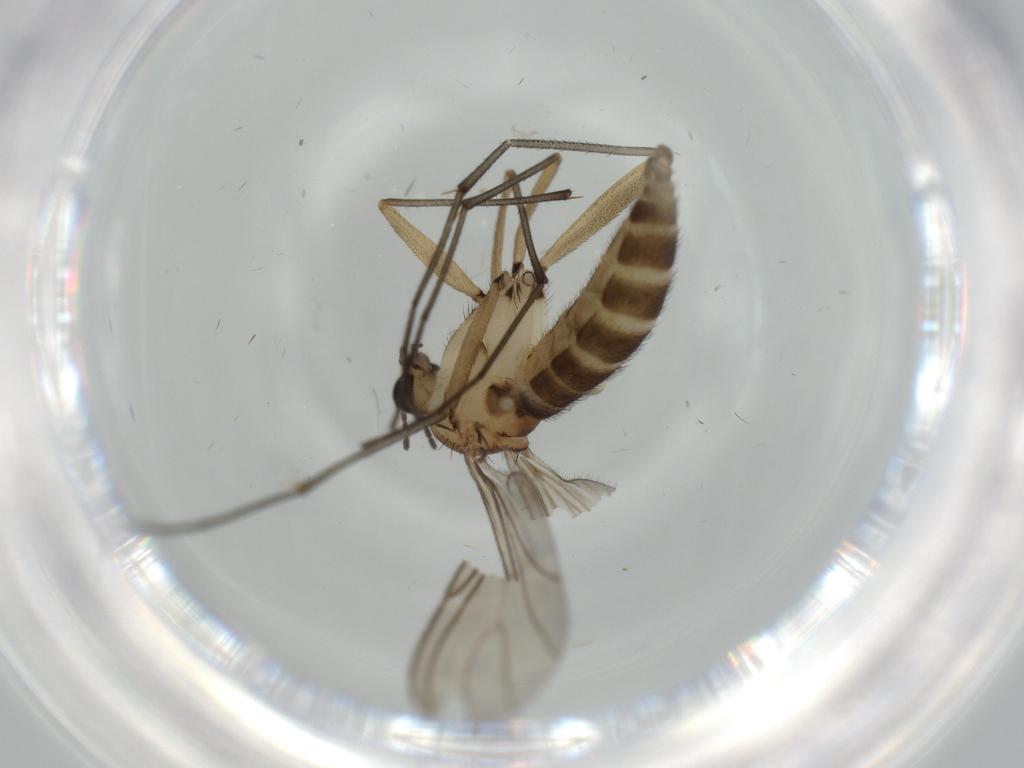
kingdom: Animalia
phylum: Arthropoda
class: Insecta
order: Diptera
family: Sciaridae
